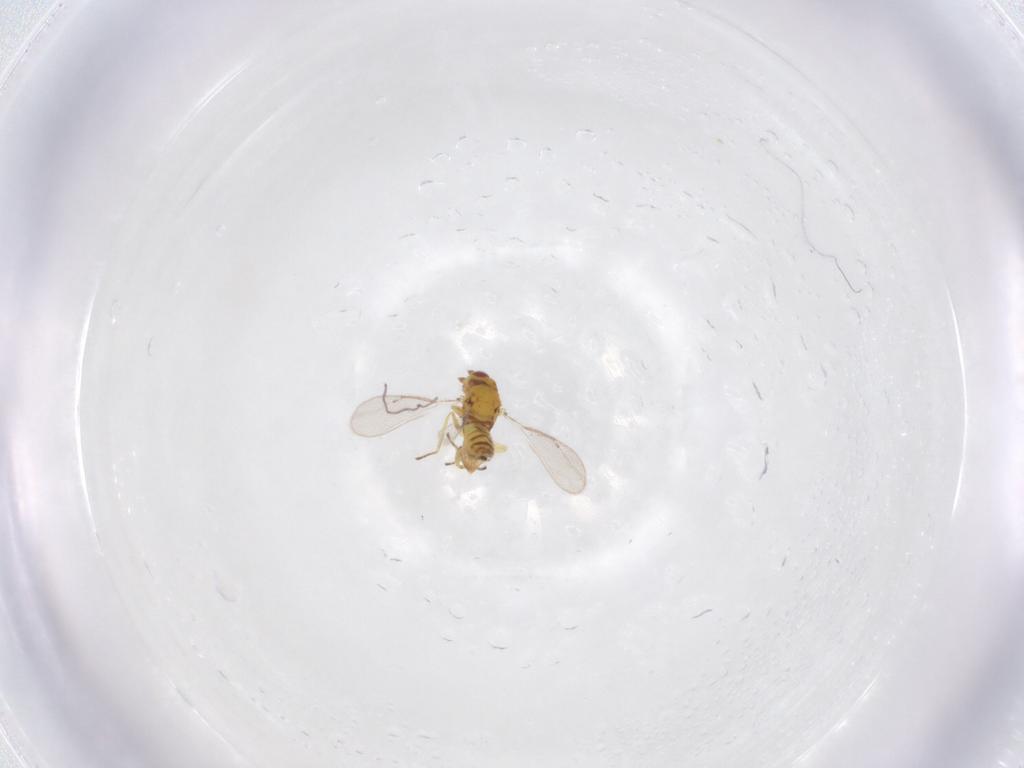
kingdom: Animalia
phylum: Arthropoda
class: Insecta
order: Hymenoptera
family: Eulophidae
